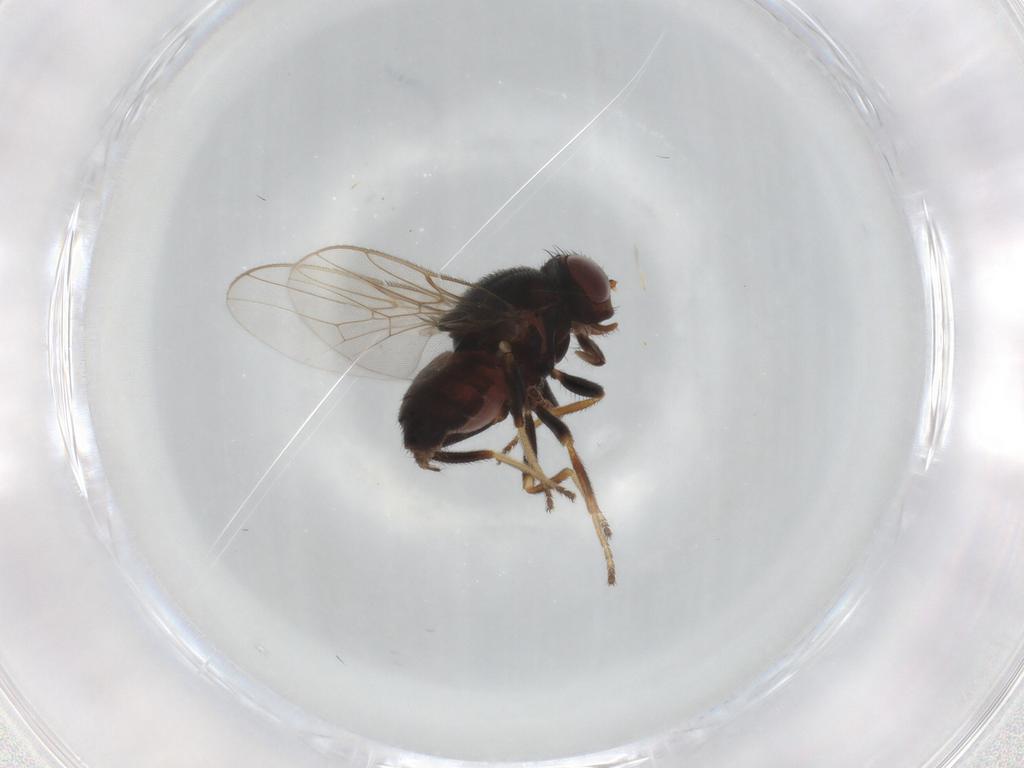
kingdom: Animalia
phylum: Arthropoda
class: Insecta
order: Diptera
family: Chloropidae
